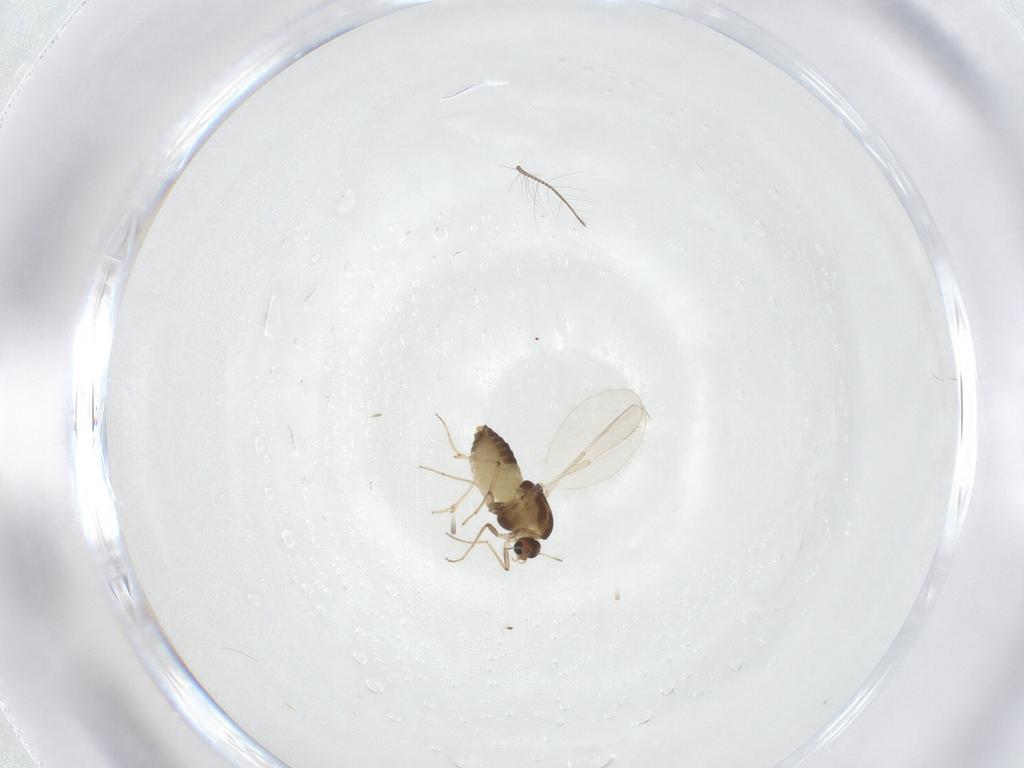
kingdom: Animalia
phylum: Arthropoda
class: Insecta
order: Diptera
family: Chironomidae
